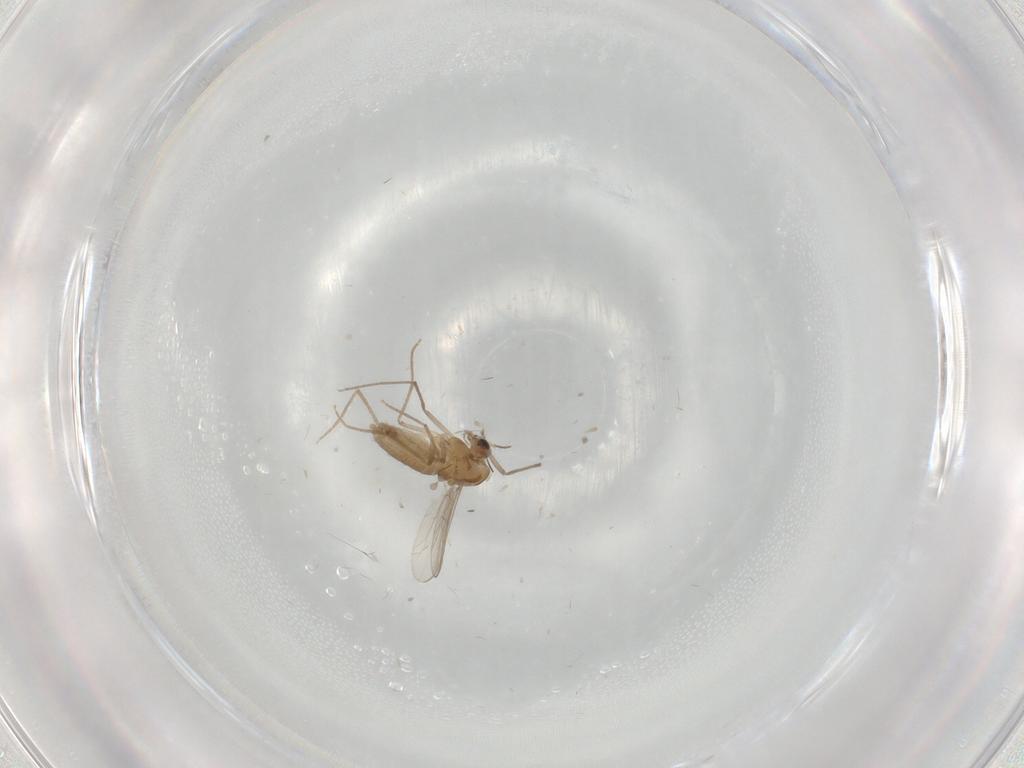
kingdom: Animalia
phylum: Arthropoda
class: Insecta
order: Diptera
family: Chironomidae
